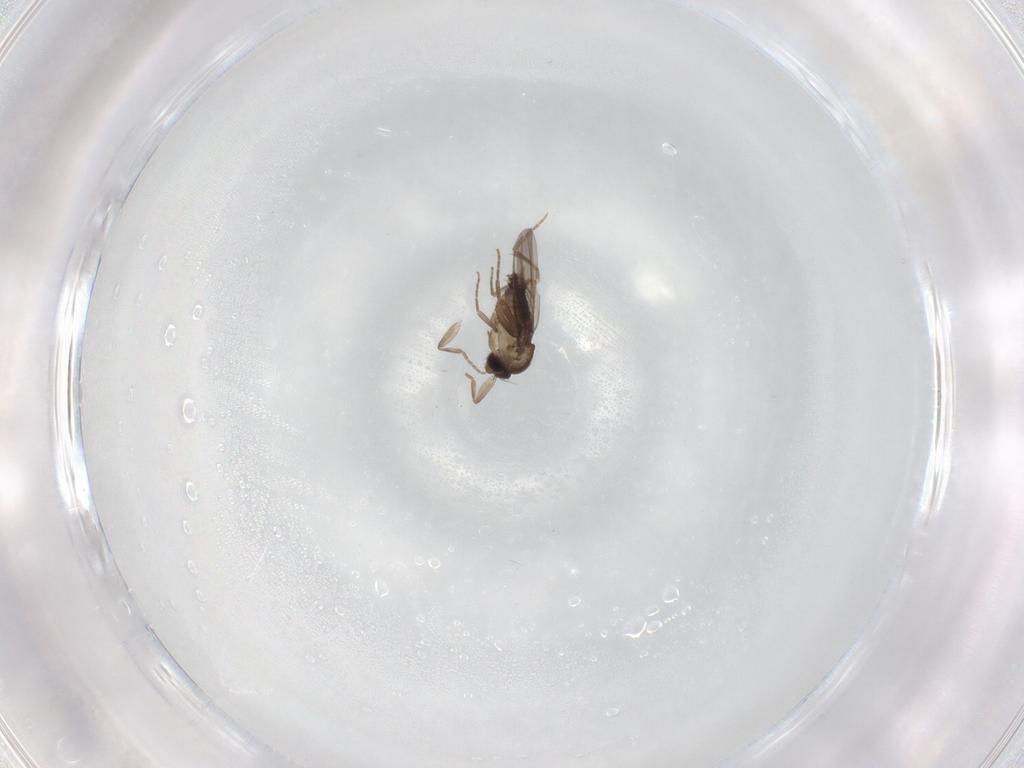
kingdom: Animalia
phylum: Arthropoda
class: Insecta
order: Diptera
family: Phoridae
